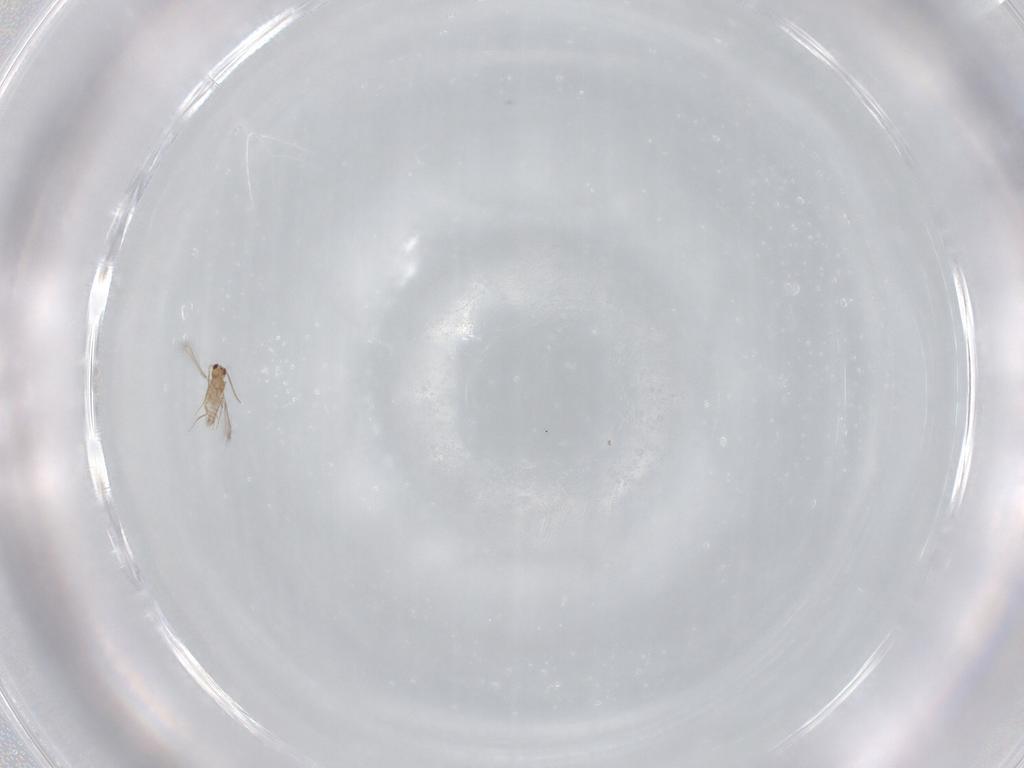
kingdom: Animalia
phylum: Arthropoda
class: Insecta
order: Hymenoptera
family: Mymaridae
